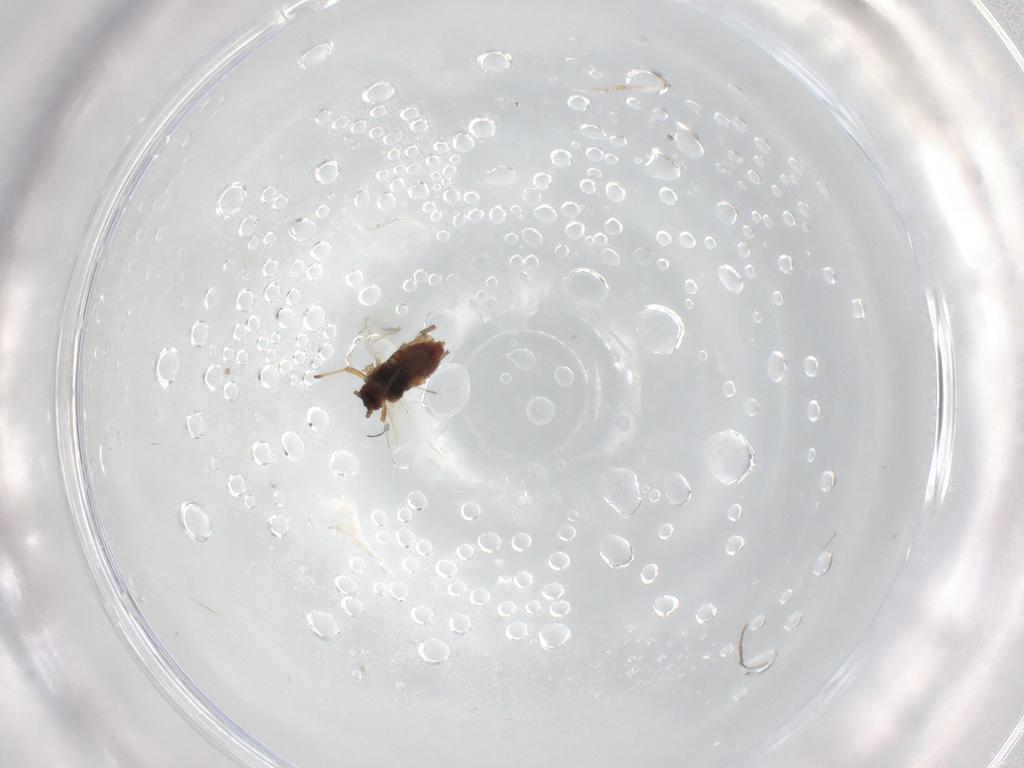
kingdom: Animalia
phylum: Arthropoda
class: Insecta
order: Hemiptera
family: Aphididae
